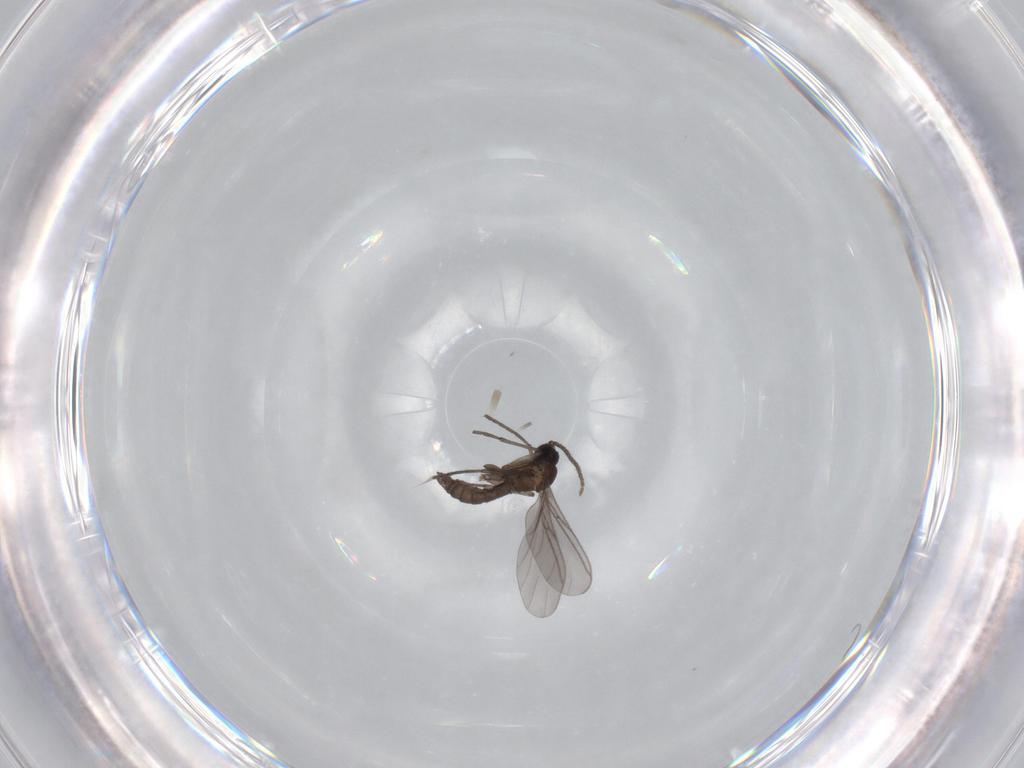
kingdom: Animalia
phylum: Arthropoda
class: Insecta
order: Diptera
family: Sciaridae
